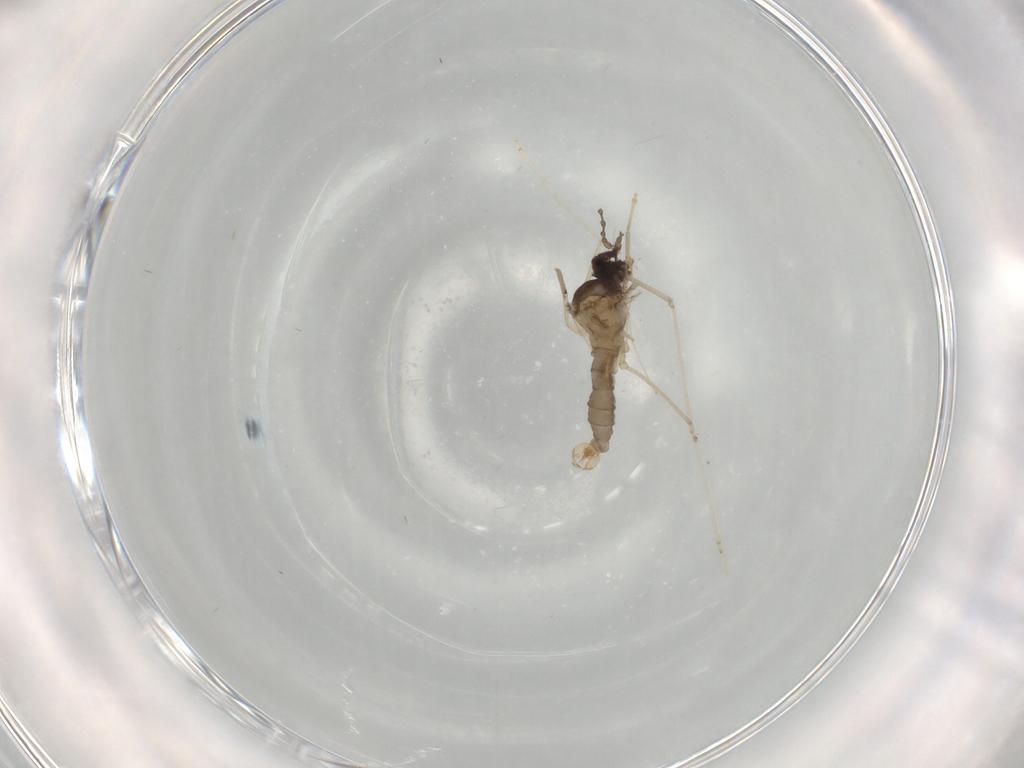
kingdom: Animalia
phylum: Arthropoda
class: Insecta
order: Diptera
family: Cecidomyiidae
